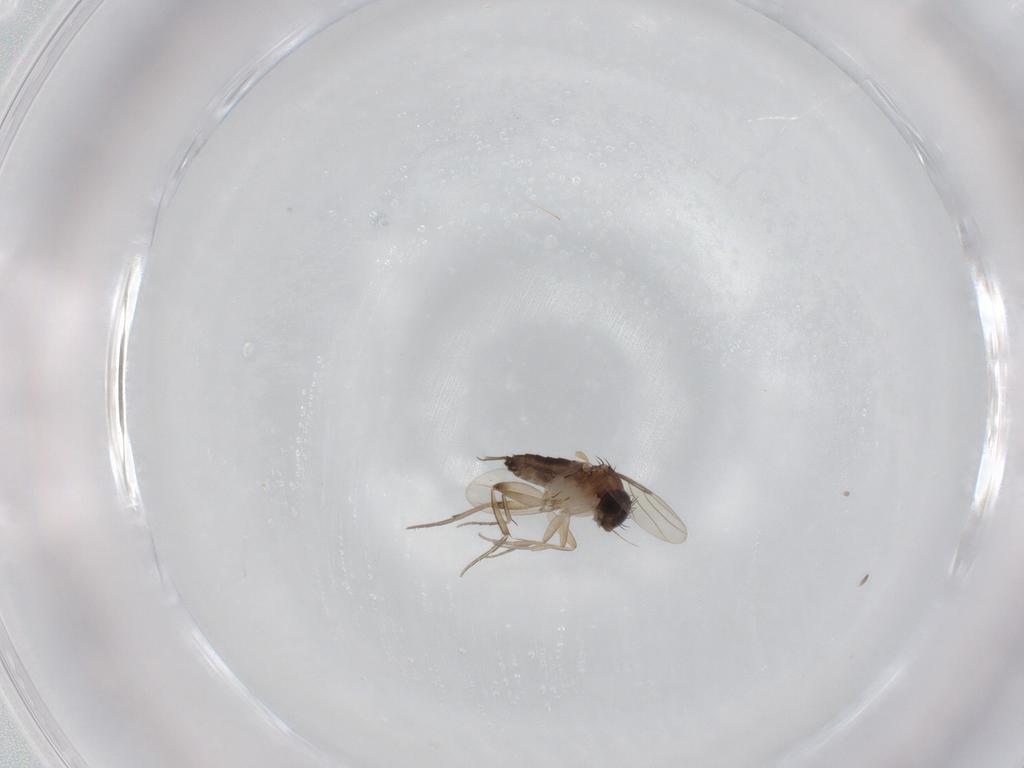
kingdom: Animalia
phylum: Arthropoda
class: Insecta
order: Diptera
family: Phoridae
